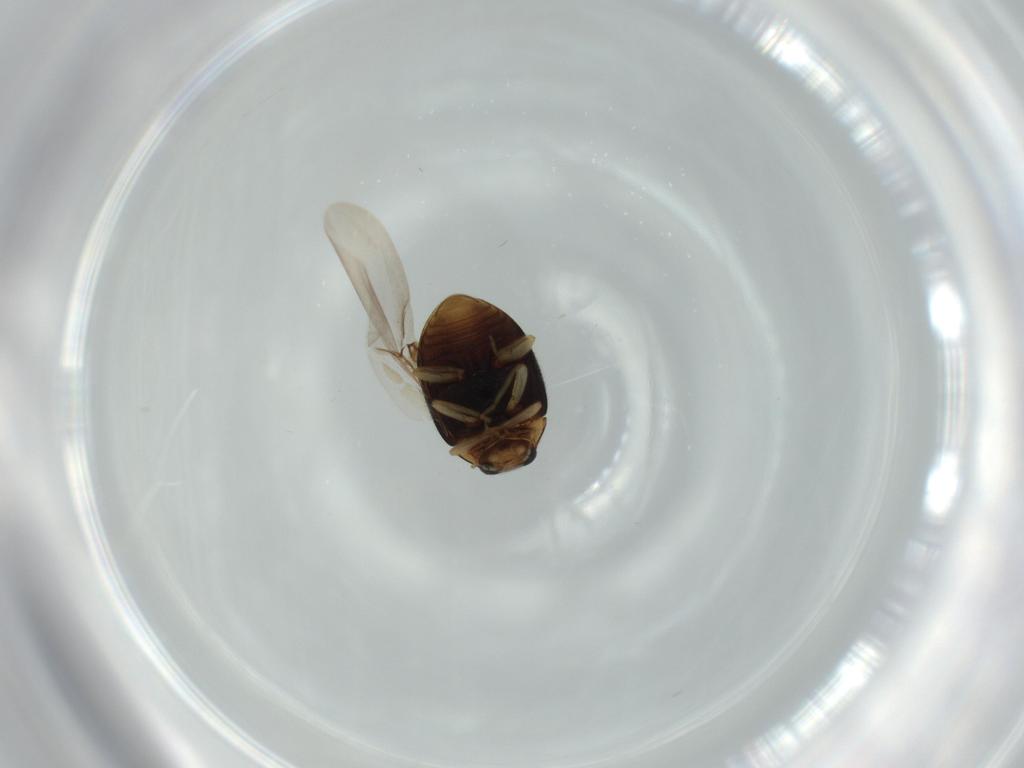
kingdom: Animalia
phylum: Arthropoda
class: Insecta
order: Coleoptera
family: Coccinellidae
